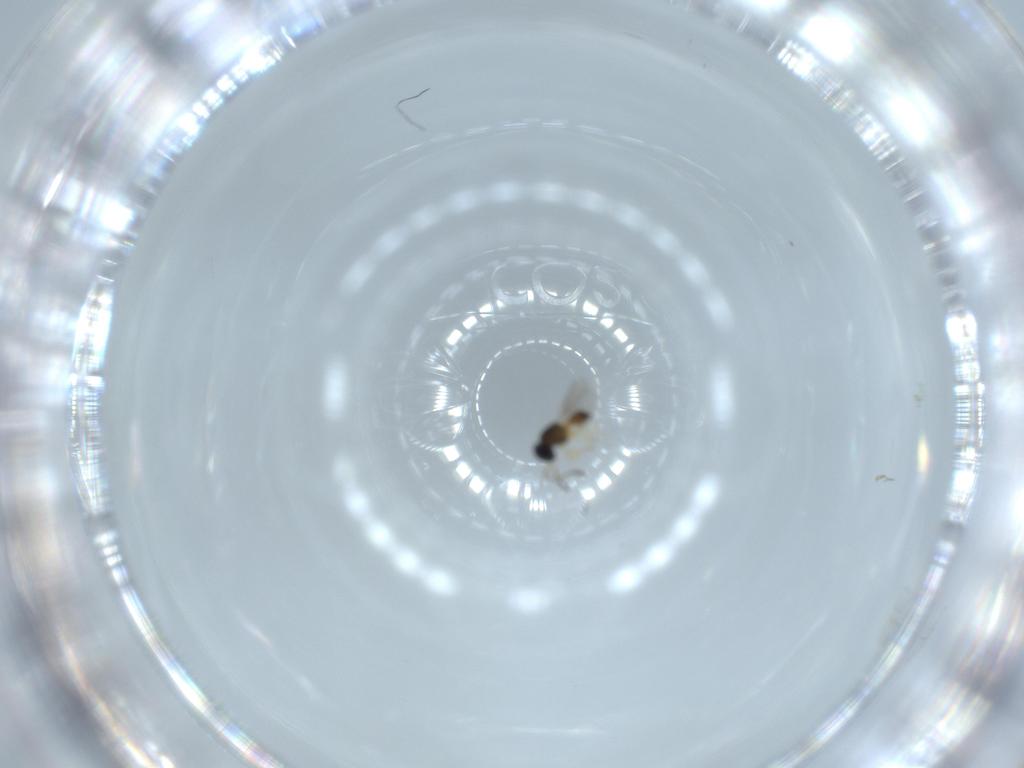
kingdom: Animalia
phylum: Arthropoda
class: Insecta
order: Hymenoptera
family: Scelionidae
